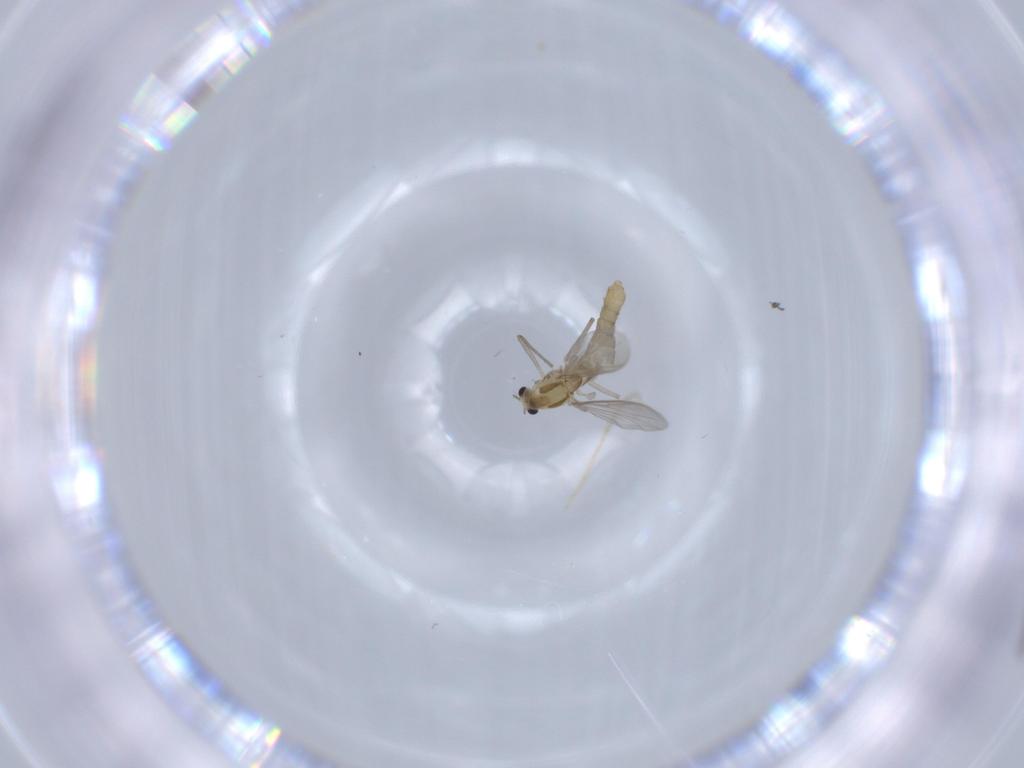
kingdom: Animalia
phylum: Arthropoda
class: Insecta
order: Diptera
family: Chironomidae
